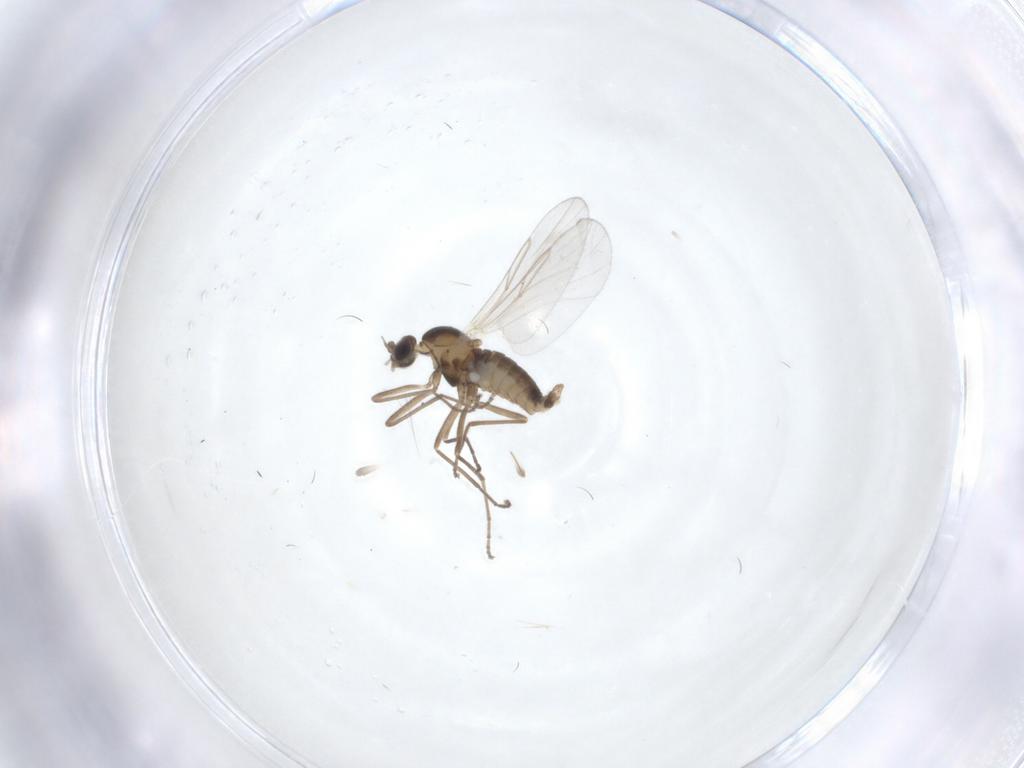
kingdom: Animalia
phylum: Arthropoda
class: Insecta
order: Diptera
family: Cecidomyiidae
